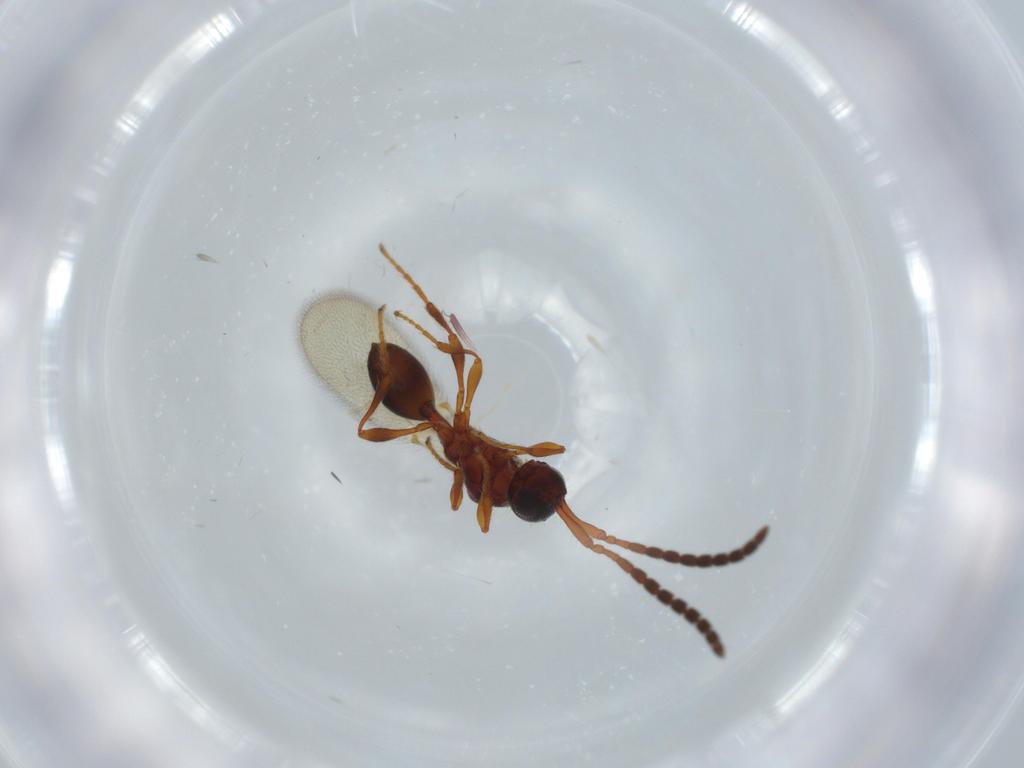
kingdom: Animalia
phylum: Arthropoda
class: Insecta
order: Hymenoptera
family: Diapriidae
